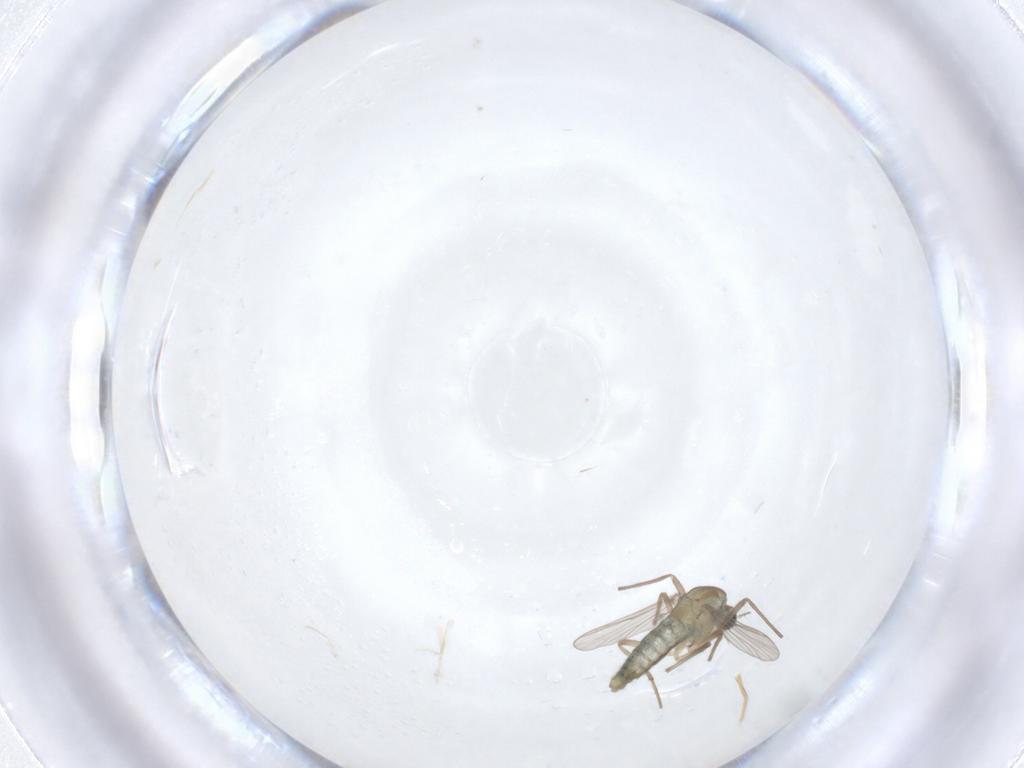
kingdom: Animalia
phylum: Arthropoda
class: Insecta
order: Diptera
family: Chironomidae
